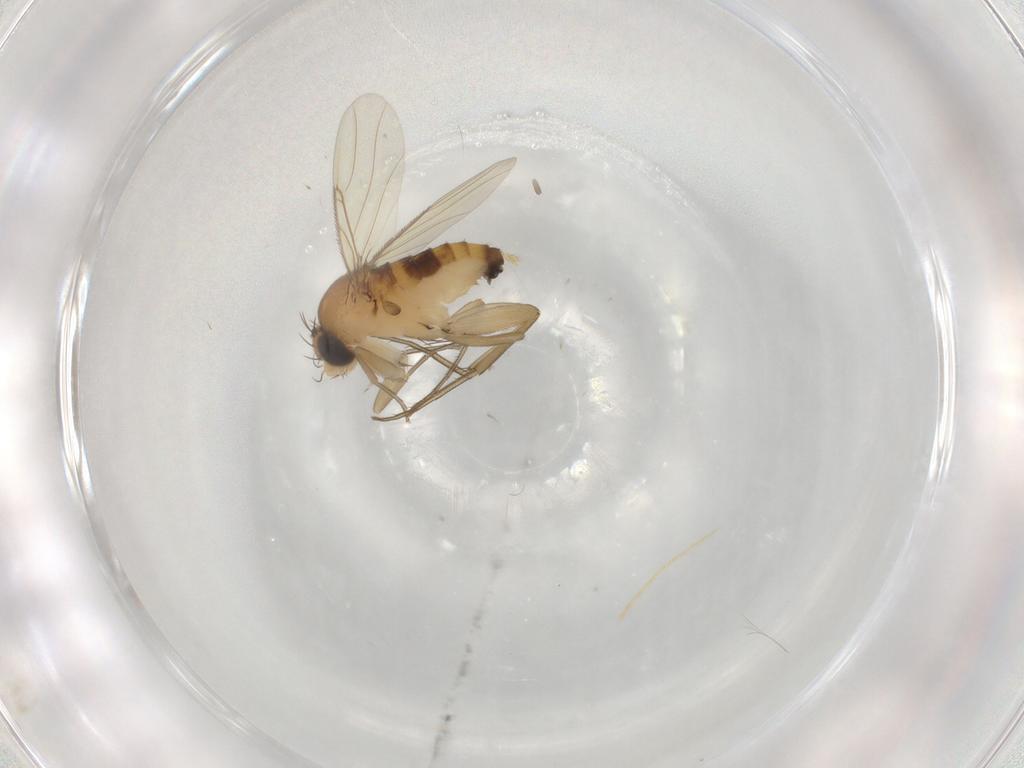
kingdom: Animalia
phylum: Arthropoda
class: Insecta
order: Diptera
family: Phoridae
